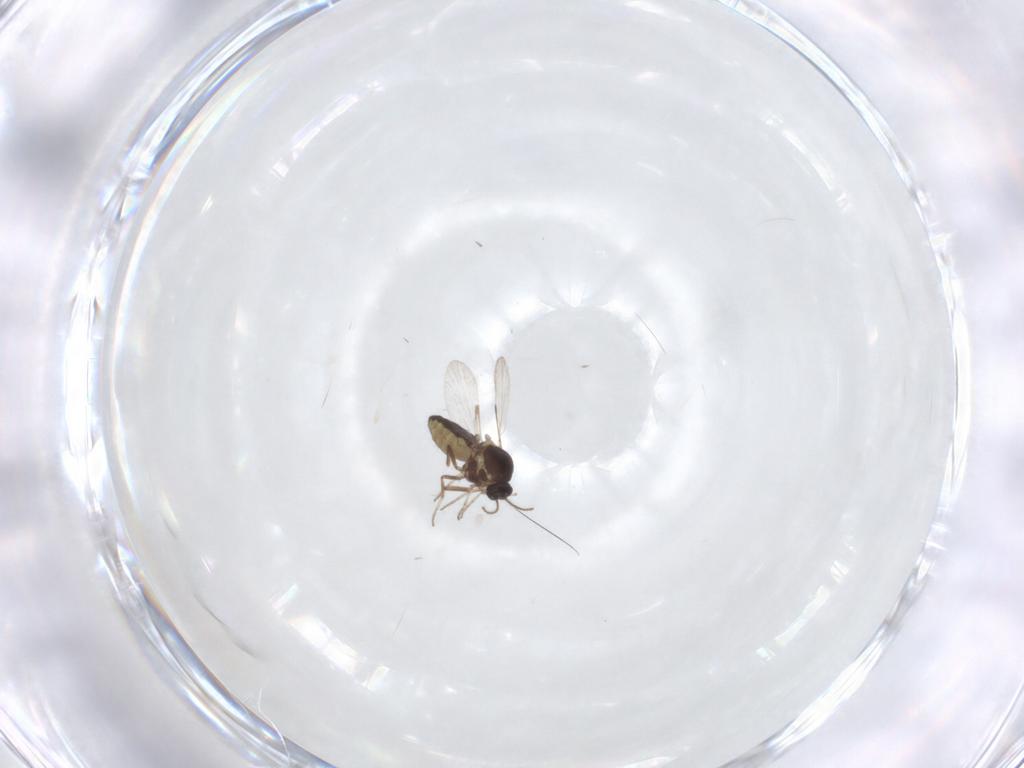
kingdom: Animalia
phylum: Arthropoda
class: Insecta
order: Diptera
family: Ceratopogonidae
